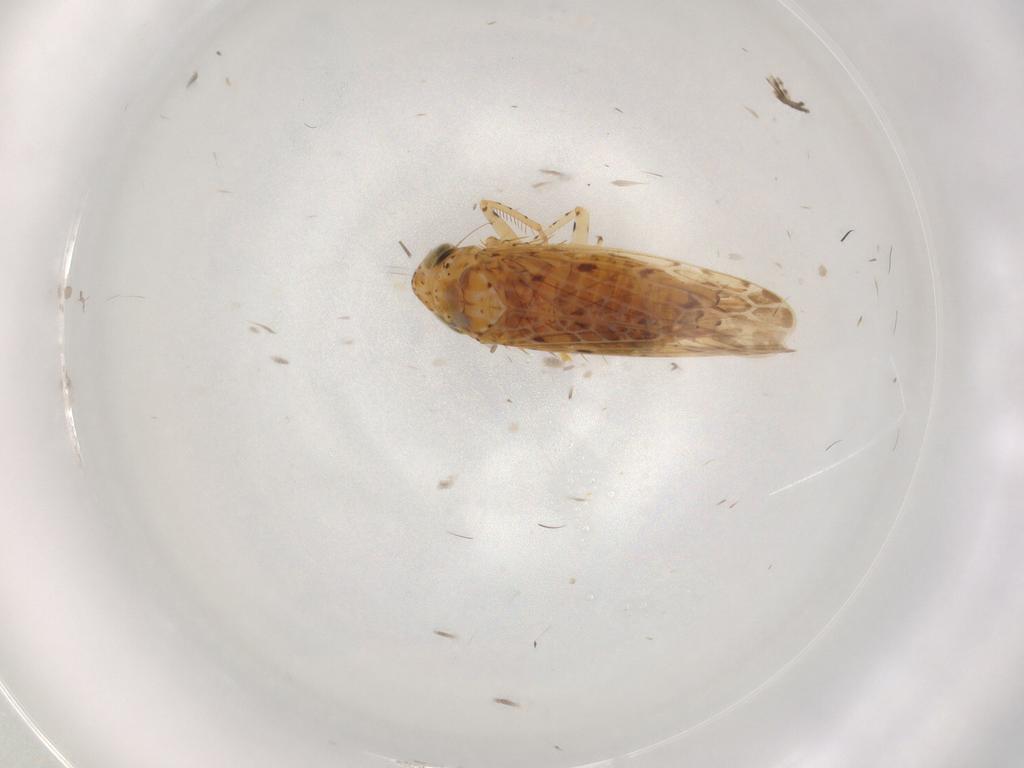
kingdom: Animalia
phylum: Arthropoda
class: Insecta
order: Hemiptera
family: Cicadellidae
